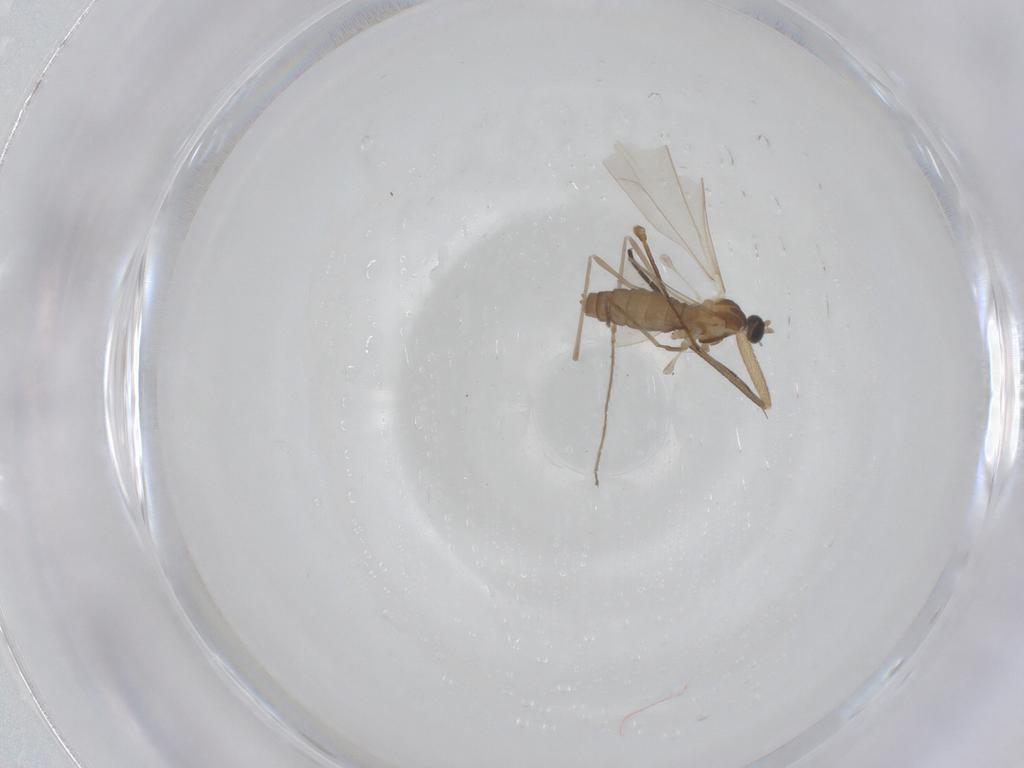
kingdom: Animalia
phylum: Arthropoda
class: Insecta
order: Diptera
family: Cecidomyiidae
